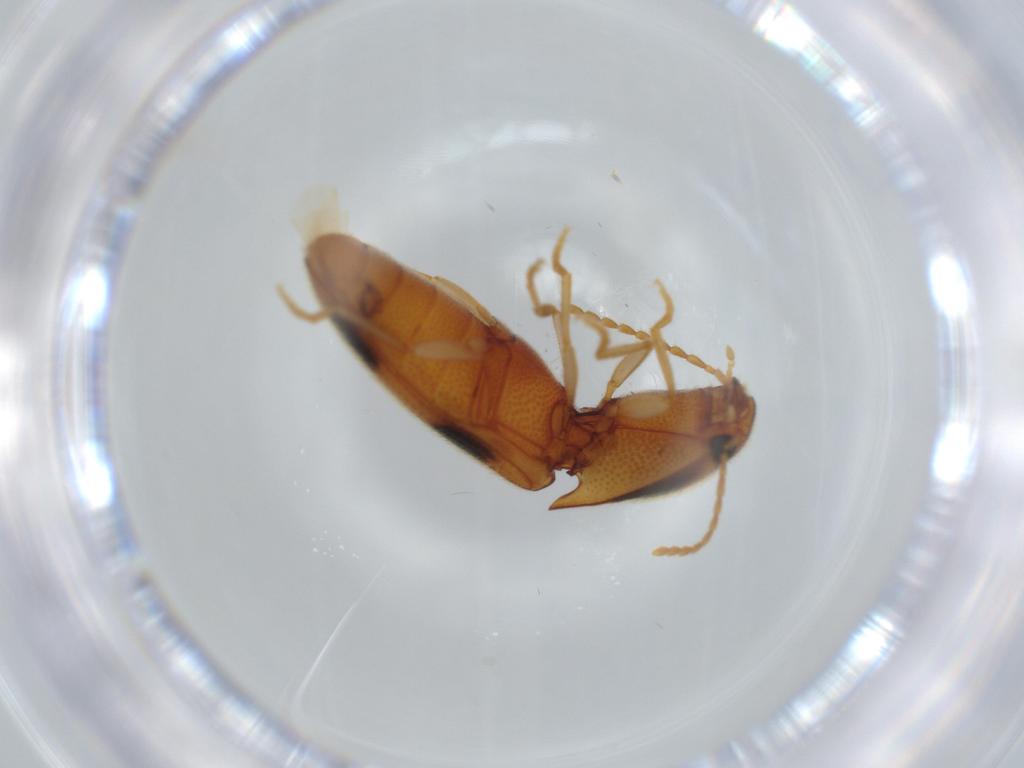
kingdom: Animalia
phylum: Arthropoda
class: Insecta
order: Coleoptera
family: Elateridae
